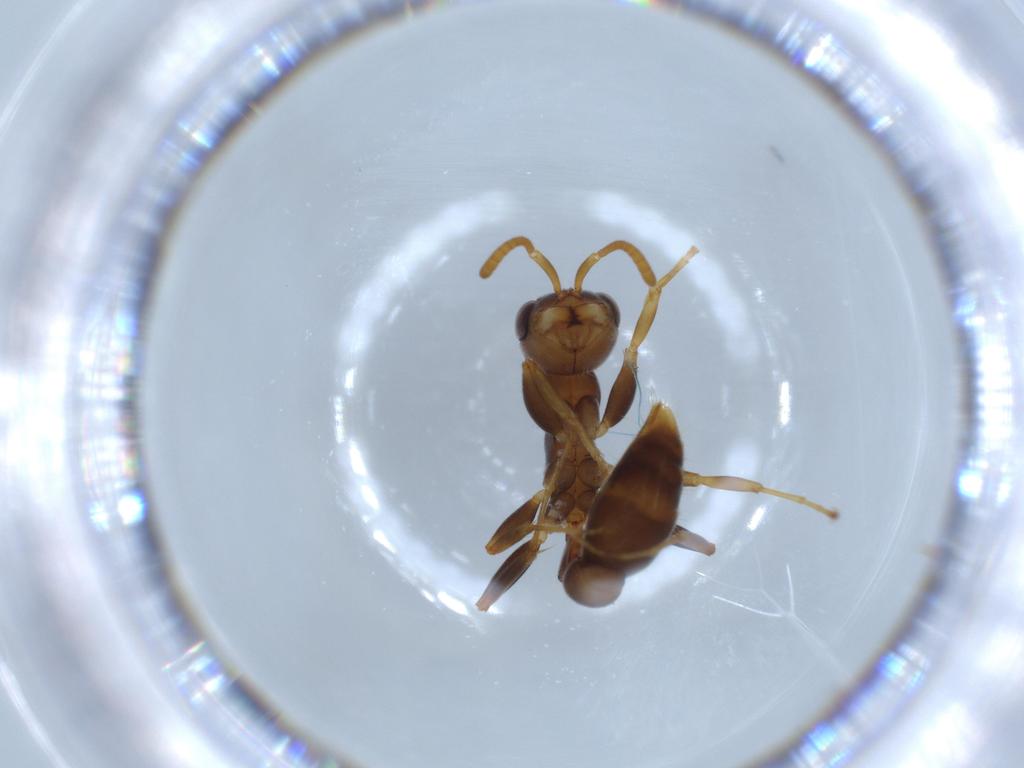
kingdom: Animalia
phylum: Arthropoda
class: Insecta
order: Hymenoptera
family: Formicidae
